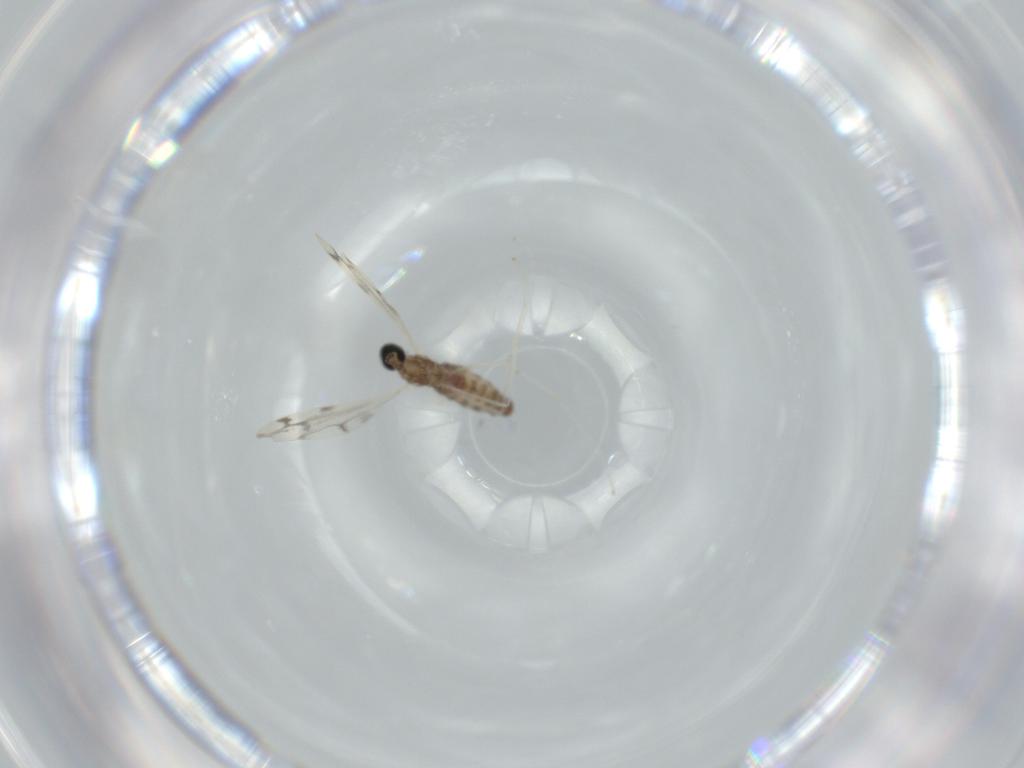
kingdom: Animalia
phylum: Arthropoda
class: Insecta
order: Diptera
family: Cecidomyiidae
